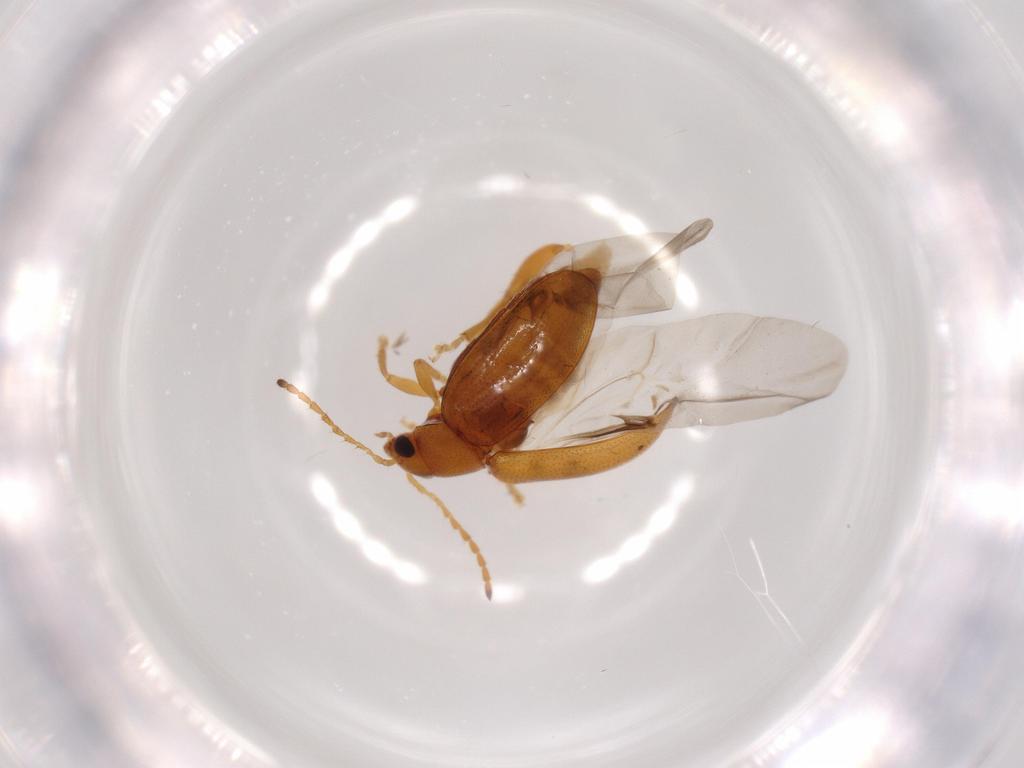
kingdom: Animalia
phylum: Arthropoda
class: Insecta
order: Coleoptera
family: Chrysomelidae
